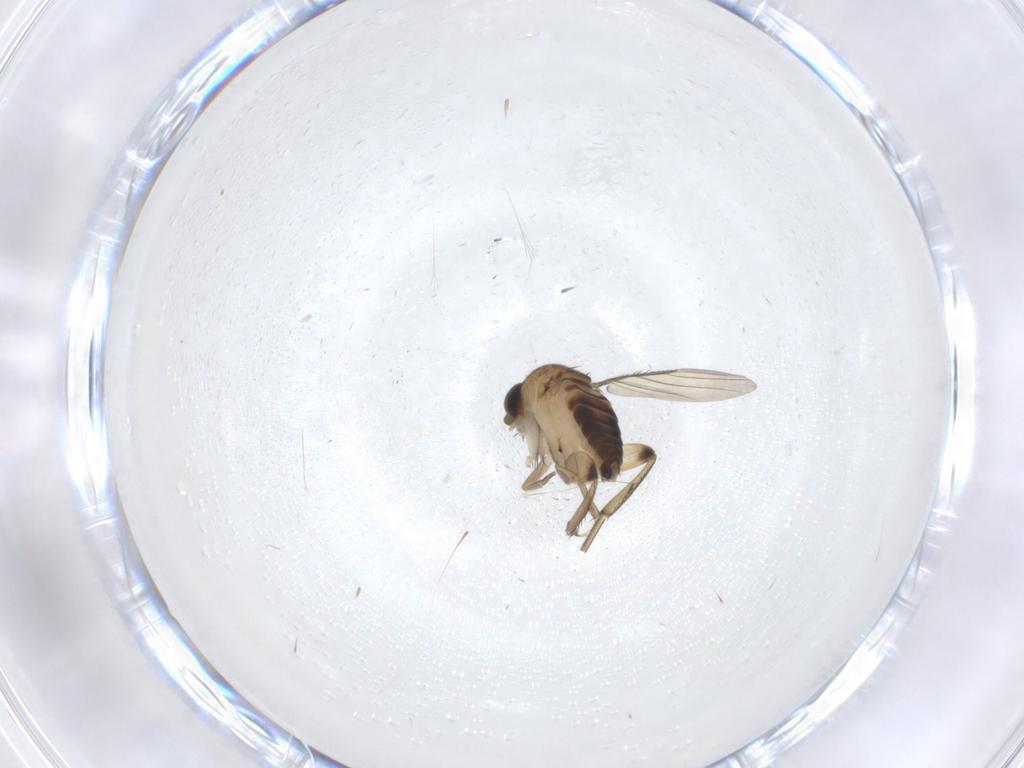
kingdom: Animalia
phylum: Arthropoda
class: Insecta
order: Diptera
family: Phoridae
